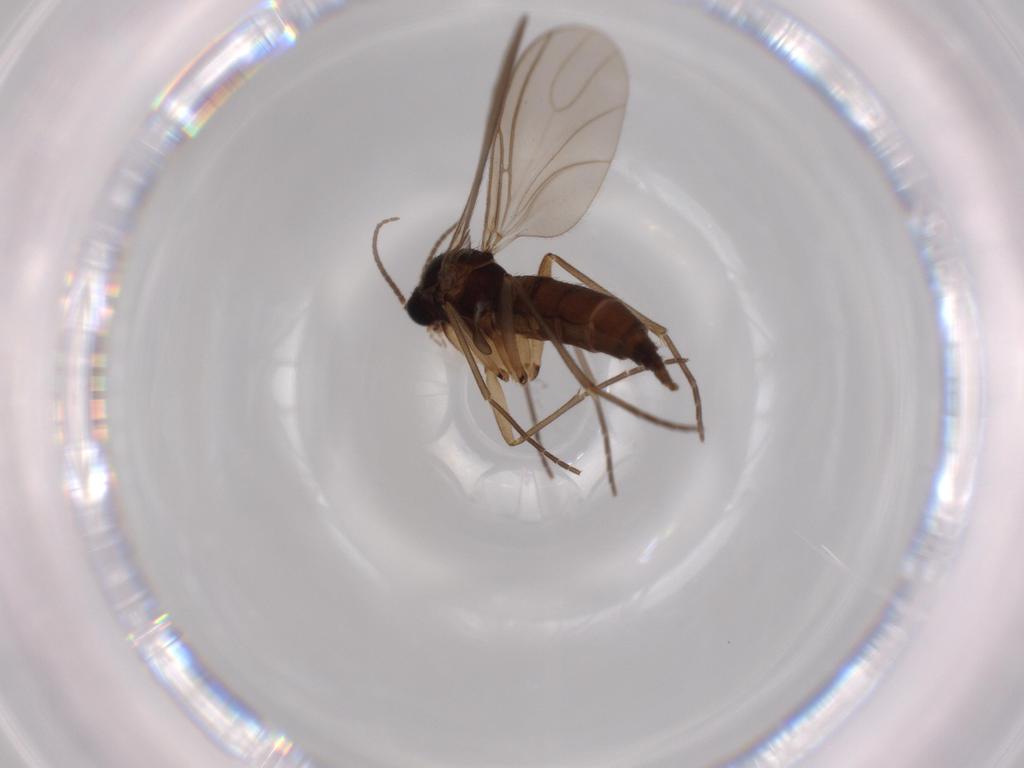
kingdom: Animalia
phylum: Arthropoda
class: Insecta
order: Diptera
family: Sciaridae
